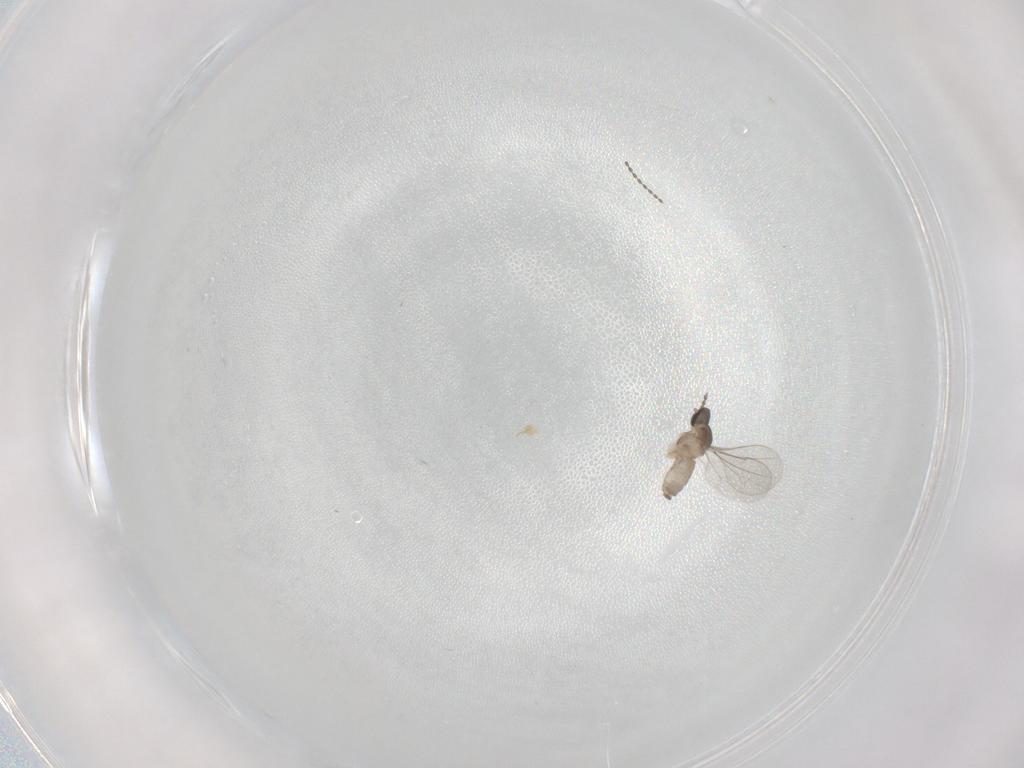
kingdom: Animalia
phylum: Arthropoda
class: Insecta
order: Diptera
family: Cecidomyiidae
